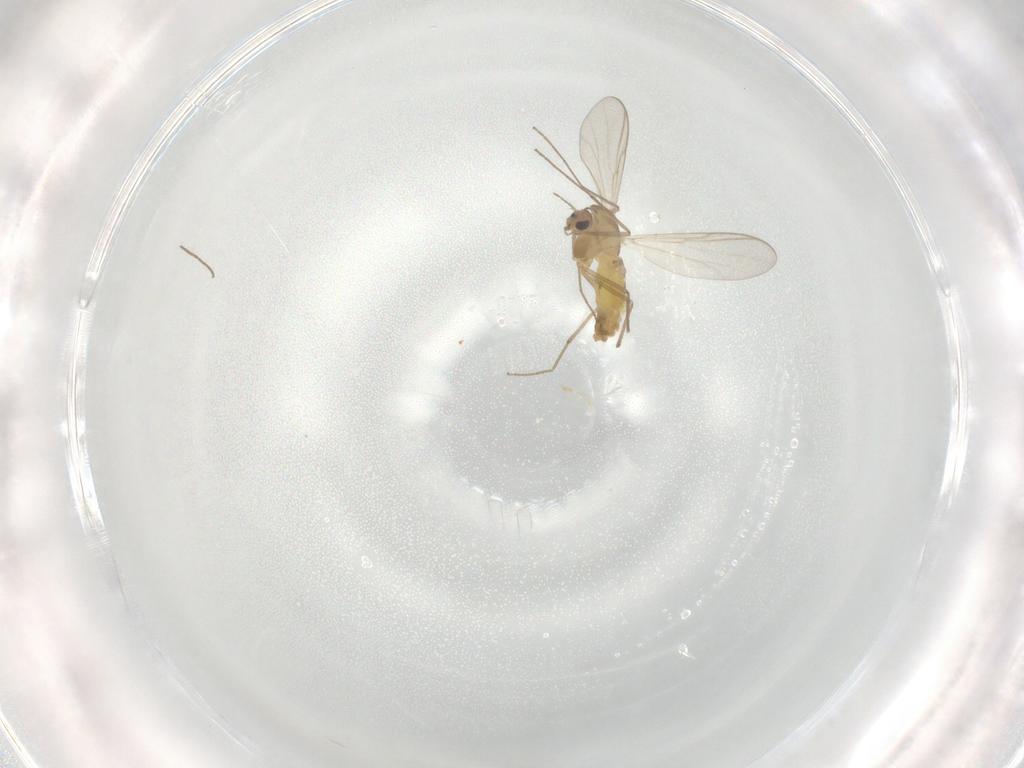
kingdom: Animalia
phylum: Arthropoda
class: Insecta
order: Diptera
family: Chironomidae
